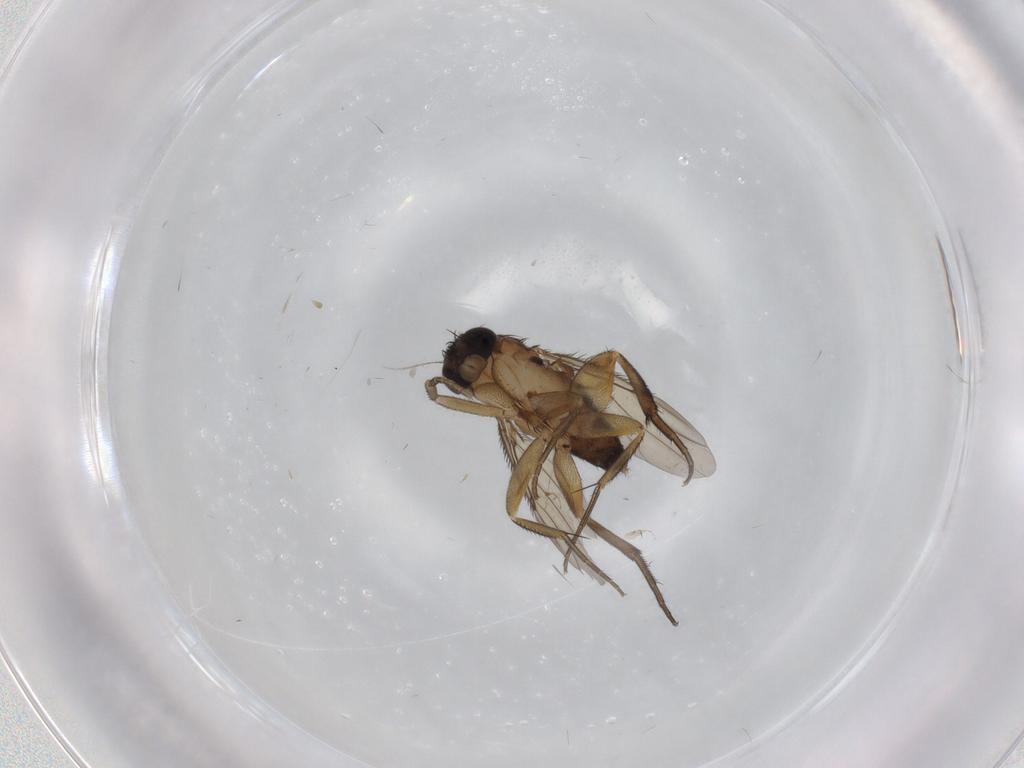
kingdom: Animalia
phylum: Arthropoda
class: Insecta
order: Diptera
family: Phoridae
